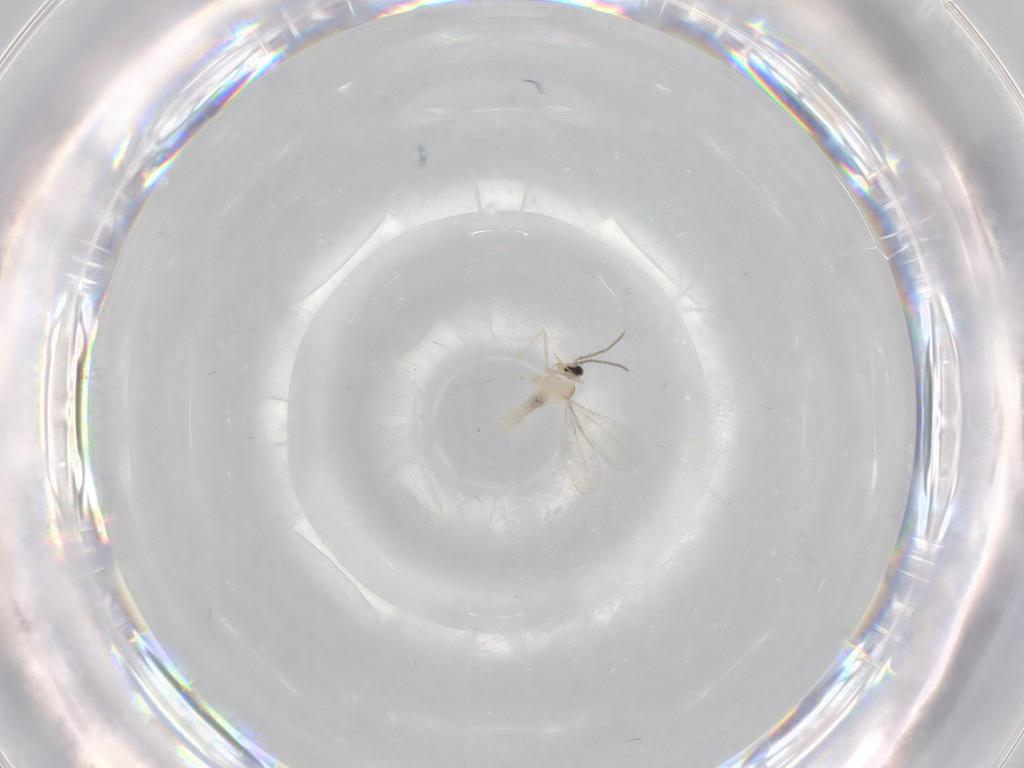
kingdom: Animalia
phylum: Arthropoda
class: Insecta
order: Diptera
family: Cecidomyiidae
